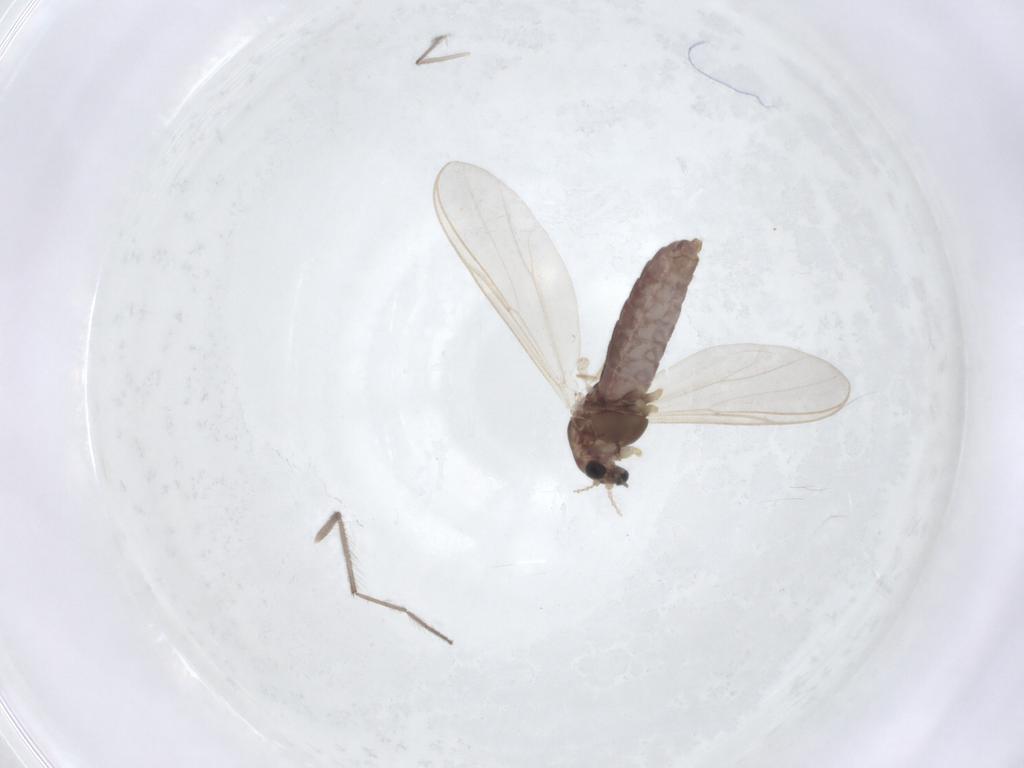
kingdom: Animalia
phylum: Arthropoda
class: Insecta
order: Diptera
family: Chironomidae
